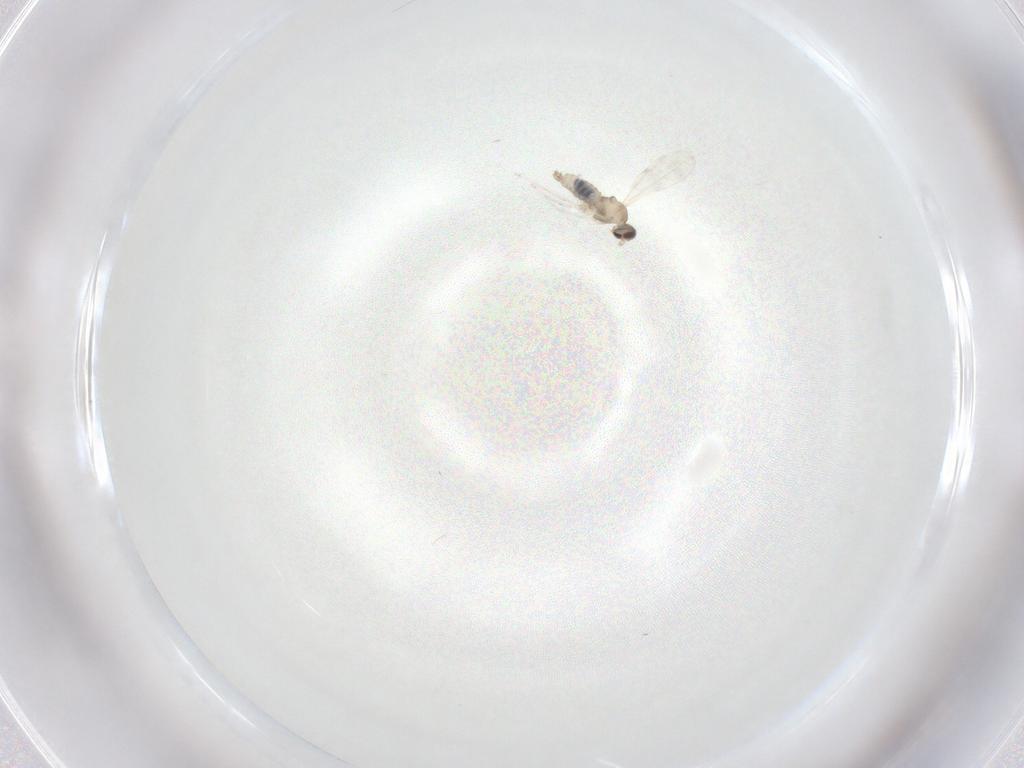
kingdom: Animalia
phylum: Arthropoda
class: Insecta
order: Diptera
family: Cecidomyiidae
